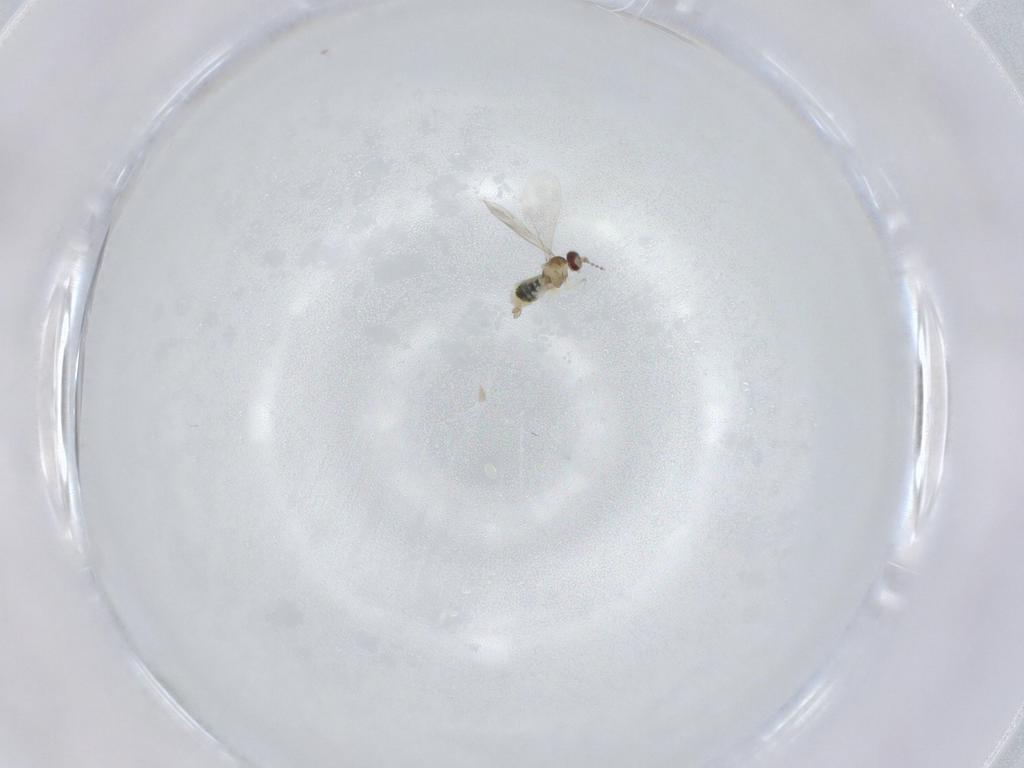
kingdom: Animalia
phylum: Arthropoda
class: Insecta
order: Diptera
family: Cecidomyiidae
